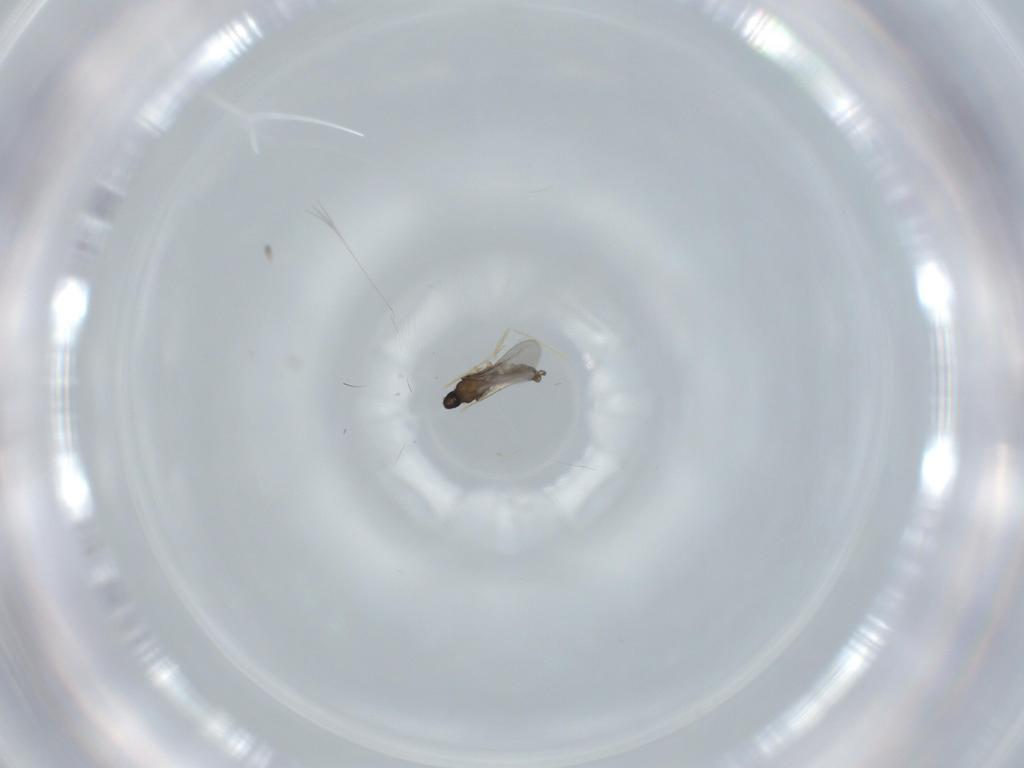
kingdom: Animalia
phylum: Arthropoda
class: Insecta
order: Diptera
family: Cecidomyiidae
